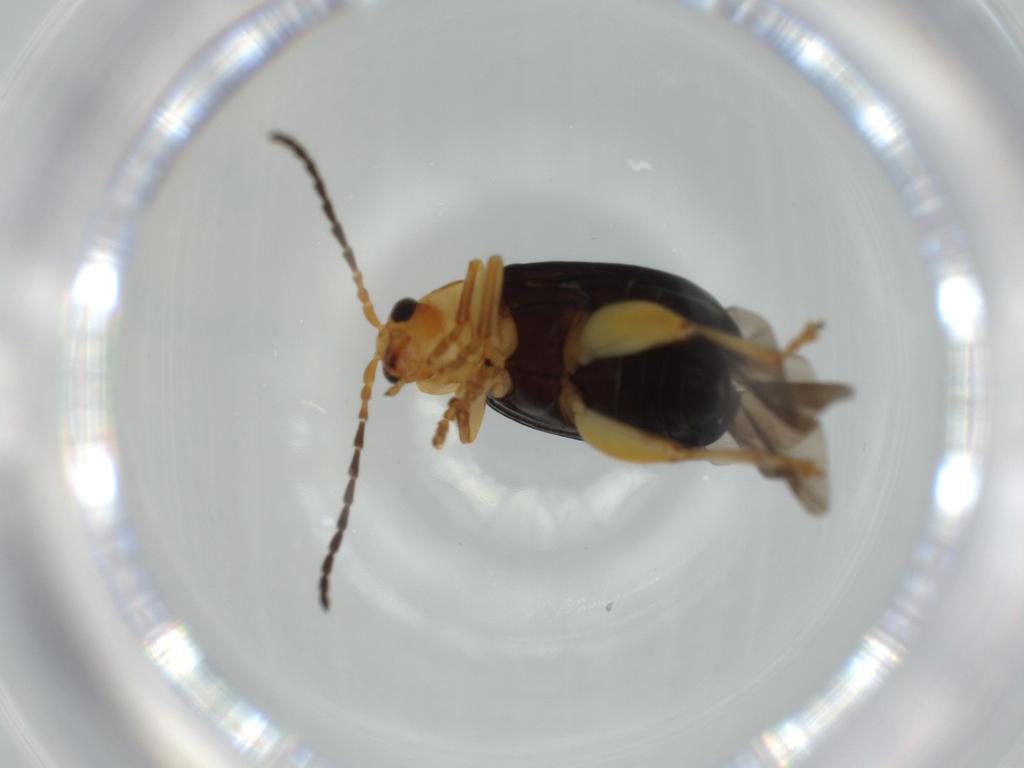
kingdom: Animalia
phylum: Arthropoda
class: Insecta
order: Coleoptera
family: Chrysomelidae
